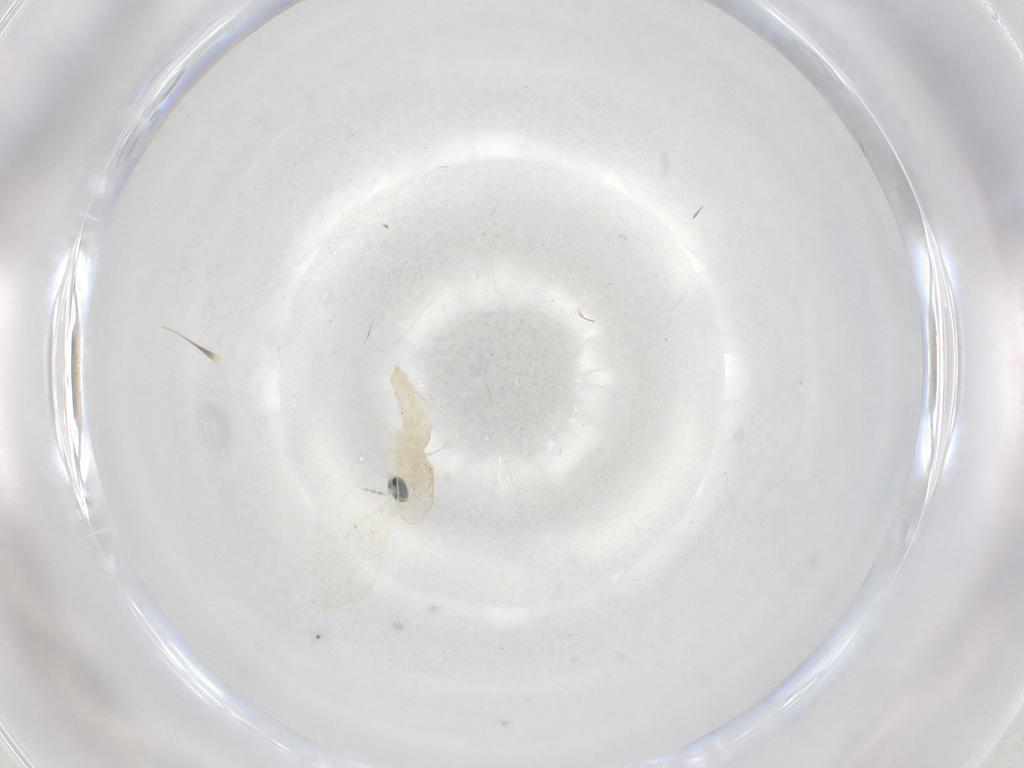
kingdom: Animalia
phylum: Arthropoda
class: Insecta
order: Diptera
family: Cecidomyiidae
